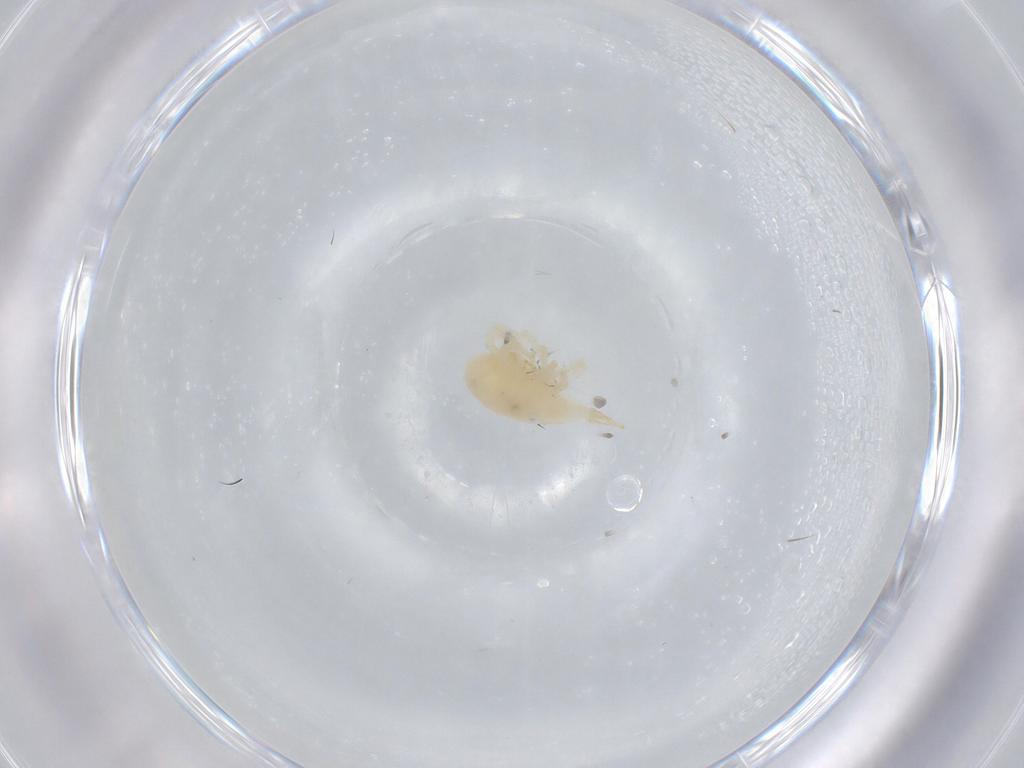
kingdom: Animalia
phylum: Arthropoda
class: Arachnida
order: Trombidiformes
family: Bdellidae
